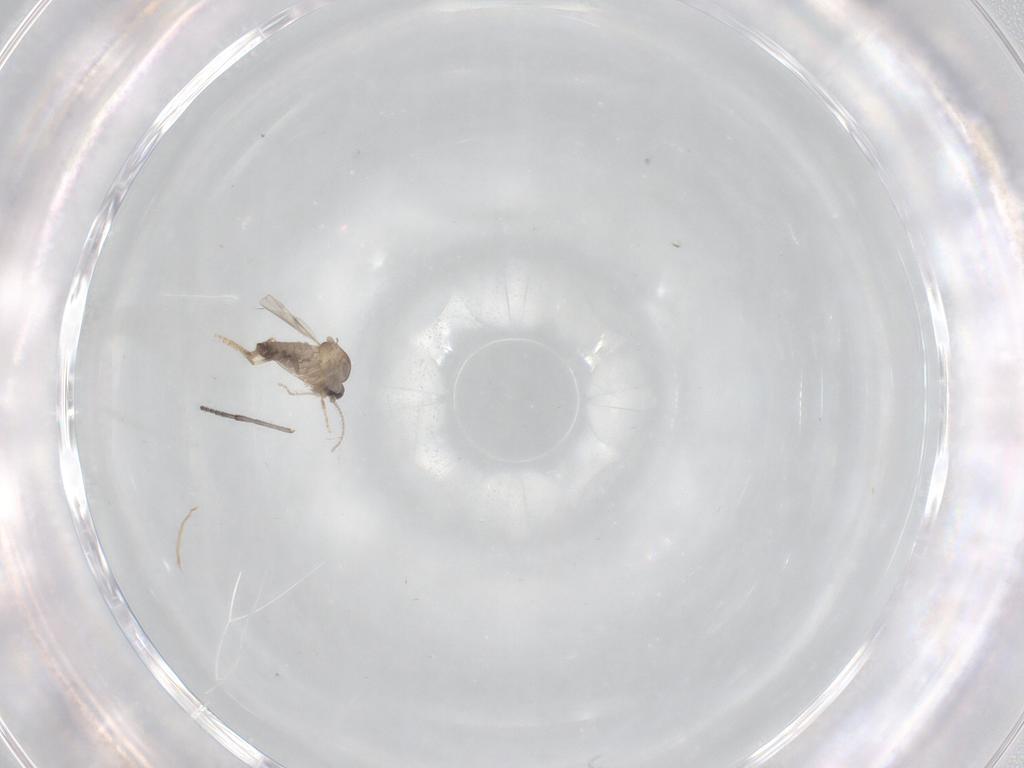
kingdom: Animalia
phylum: Arthropoda
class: Insecta
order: Diptera
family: Sciaridae
